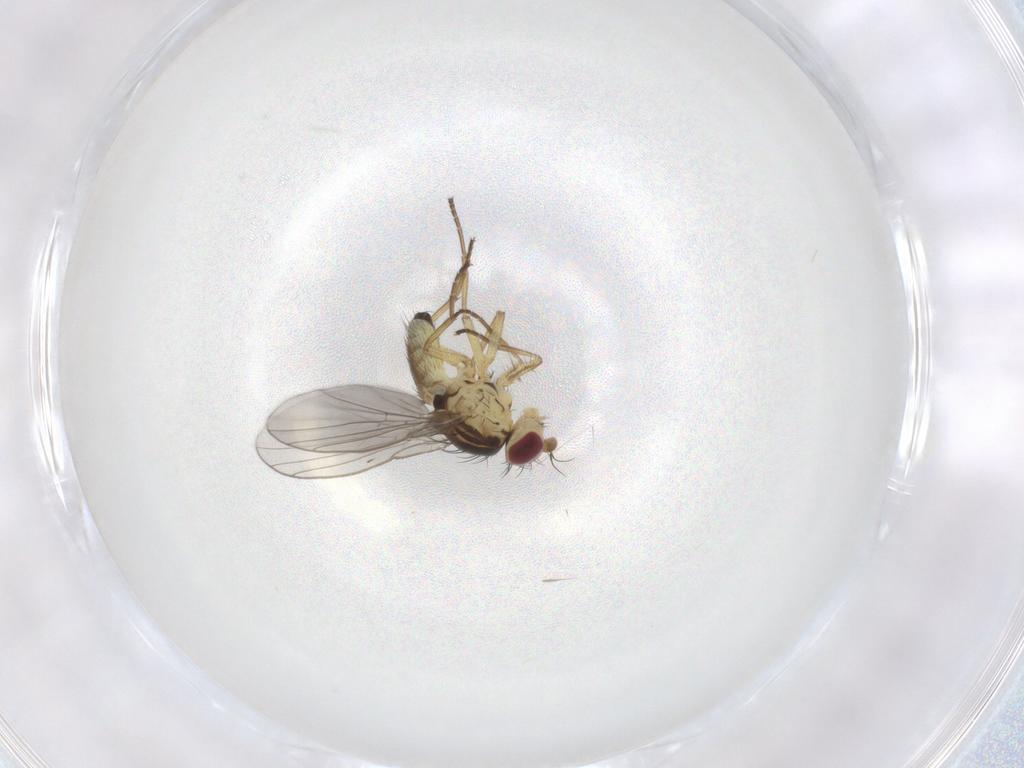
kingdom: Animalia
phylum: Arthropoda
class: Insecta
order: Diptera
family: Agromyzidae
